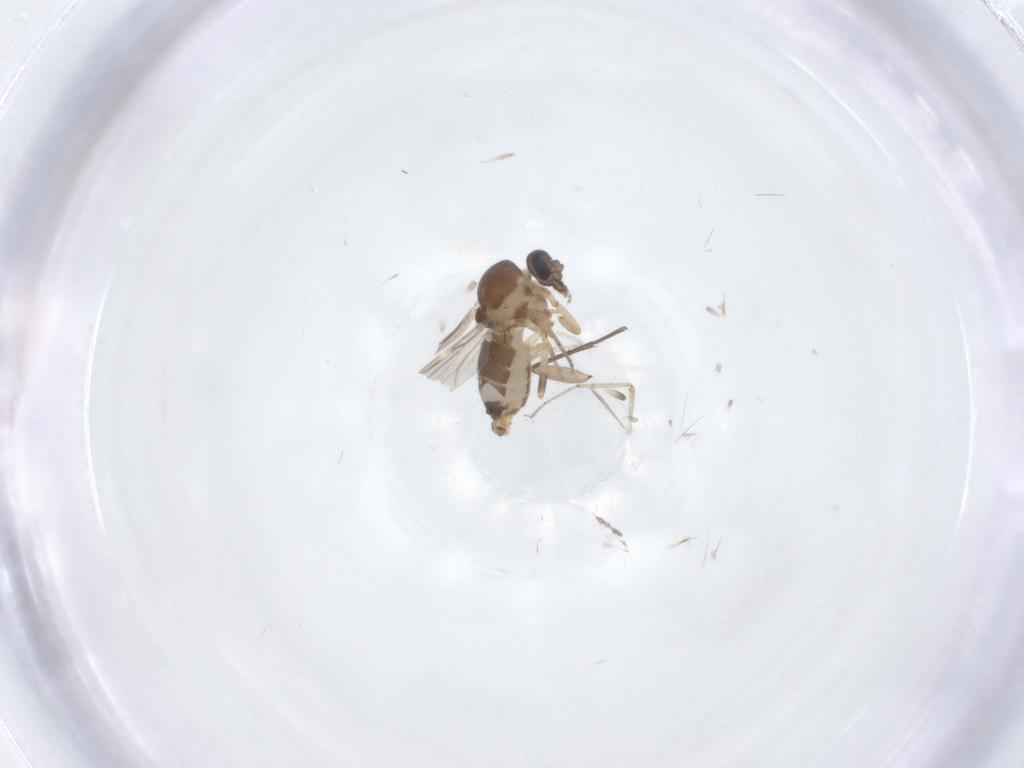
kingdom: Animalia
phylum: Arthropoda
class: Insecta
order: Diptera
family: Ceratopogonidae
